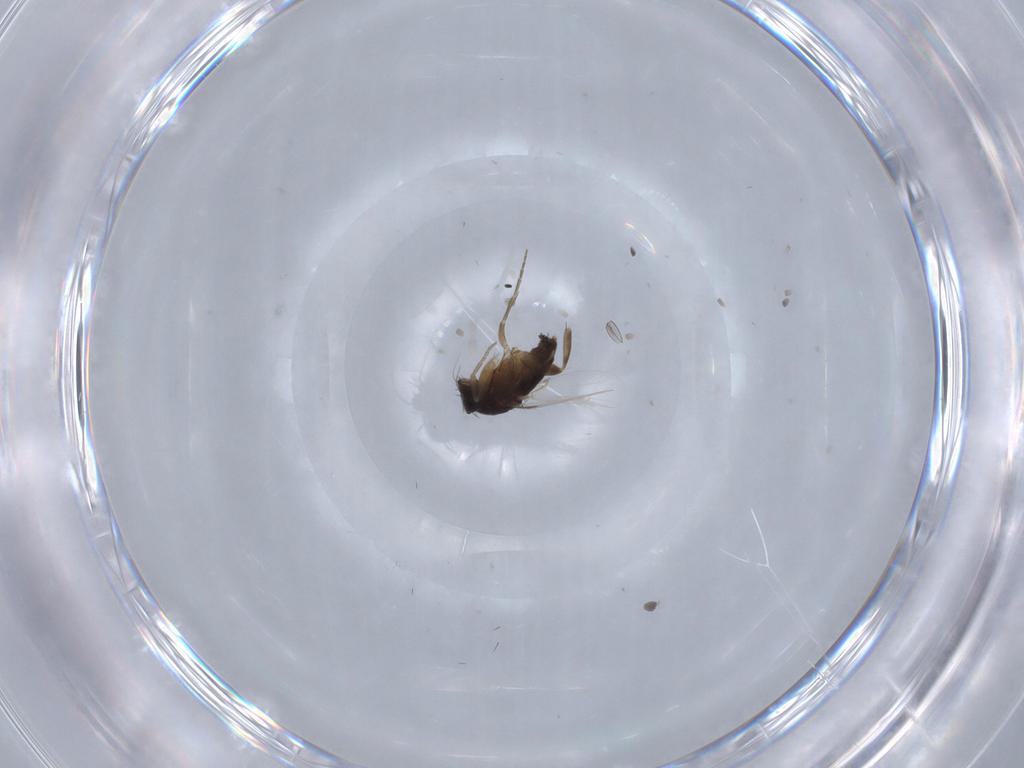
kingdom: Animalia
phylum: Arthropoda
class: Insecta
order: Diptera
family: Phoridae
